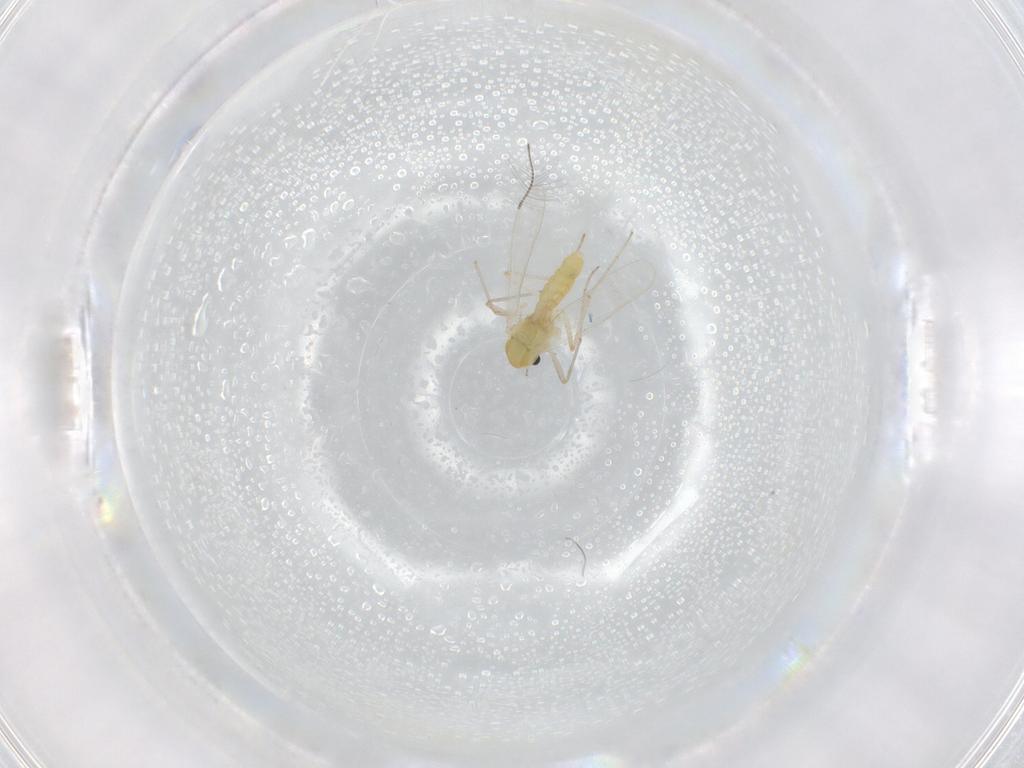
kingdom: Animalia
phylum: Arthropoda
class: Insecta
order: Diptera
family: Chironomidae
